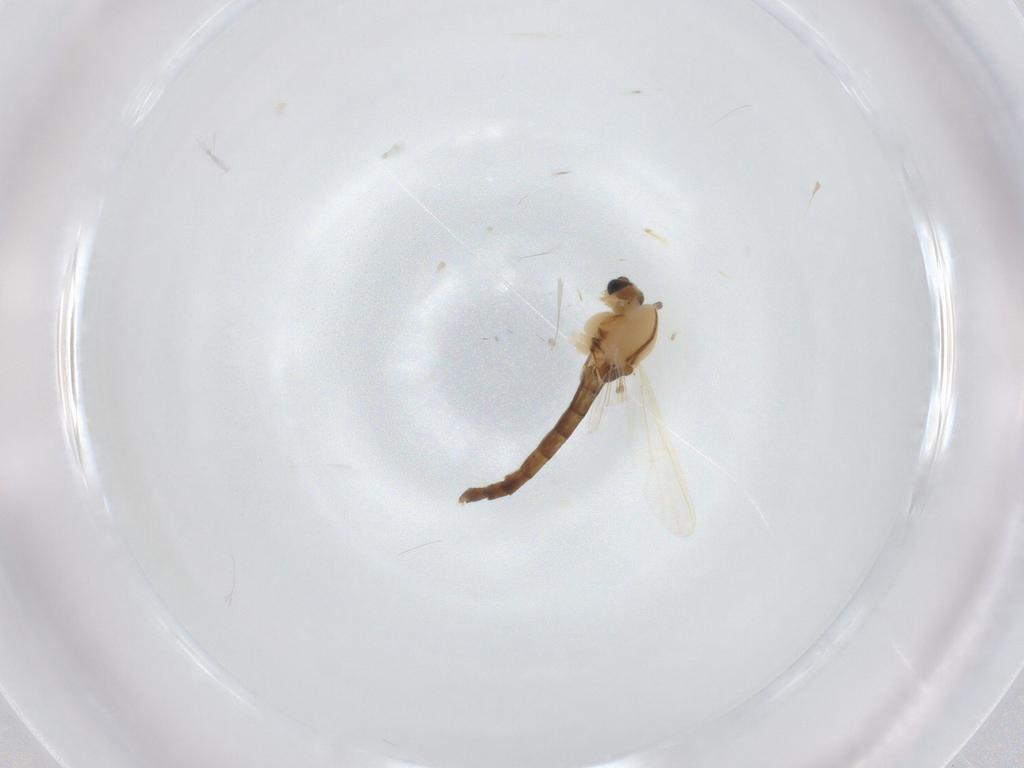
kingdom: Animalia
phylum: Arthropoda
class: Insecta
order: Diptera
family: Chironomidae
